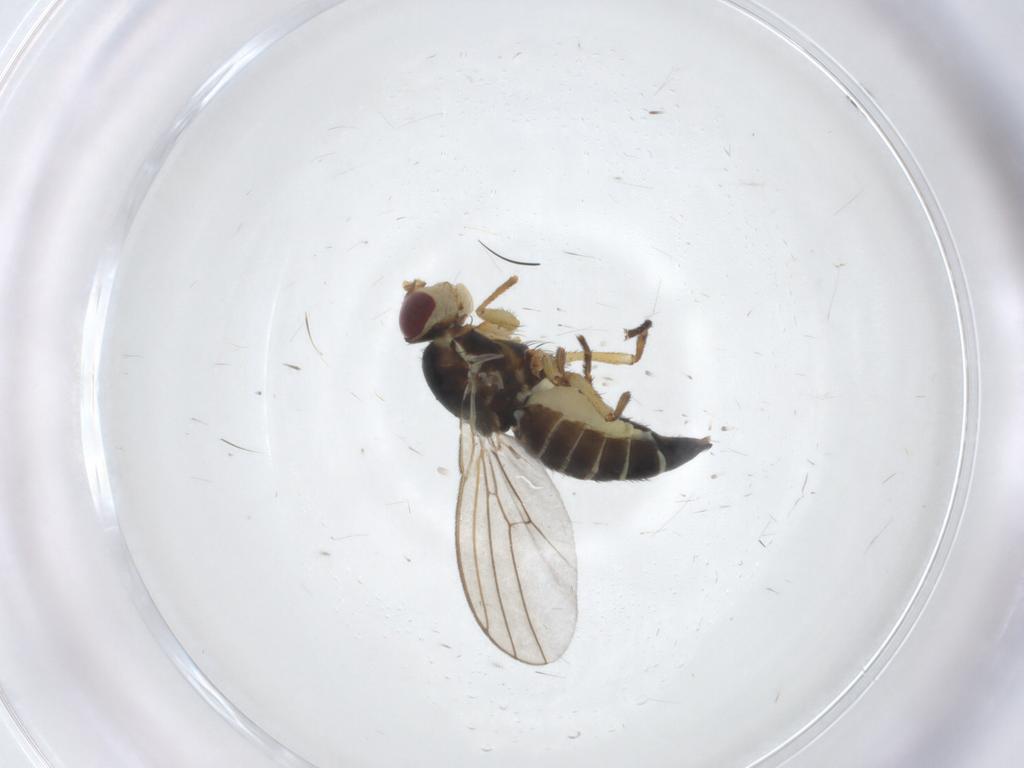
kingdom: Animalia
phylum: Arthropoda
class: Insecta
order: Diptera
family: Agromyzidae
